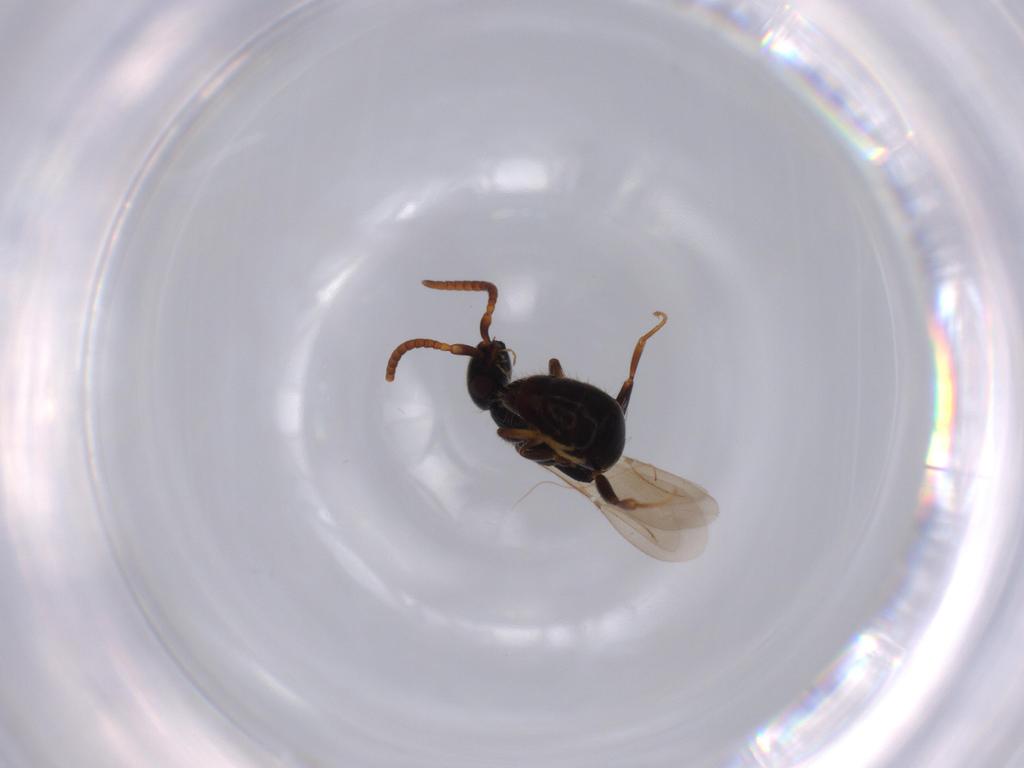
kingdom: Animalia
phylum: Arthropoda
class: Insecta
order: Hymenoptera
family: Bethylidae
